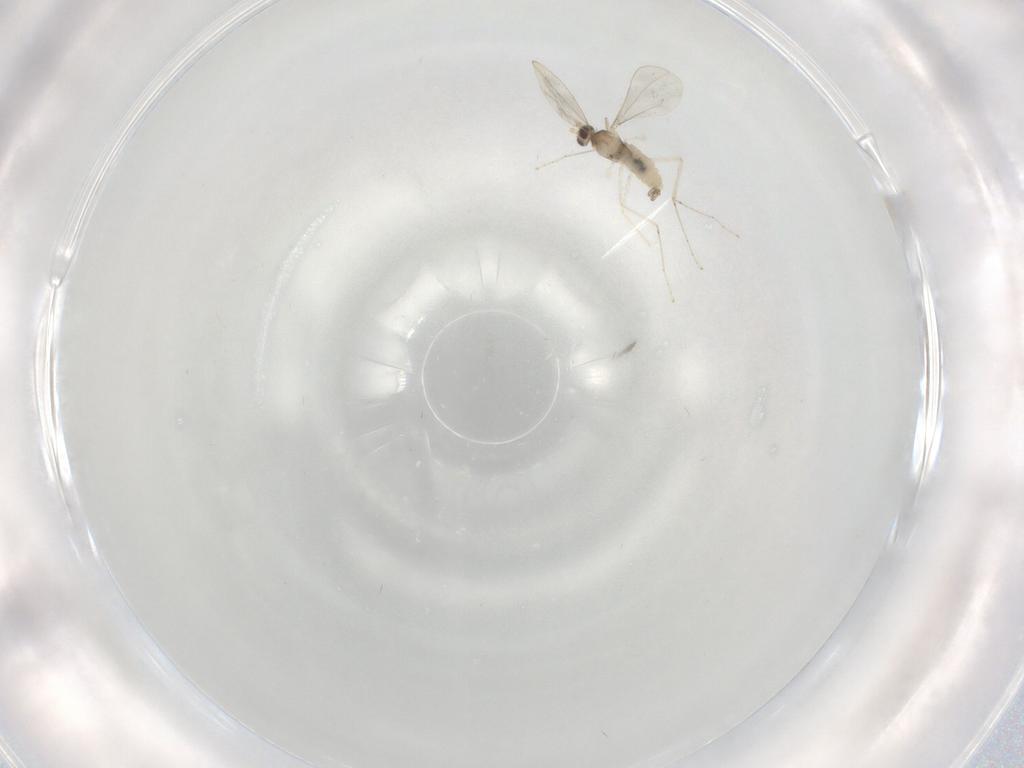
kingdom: Animalia
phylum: Arthropoda
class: Insecta
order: Diptera
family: Cecidomyiidae
